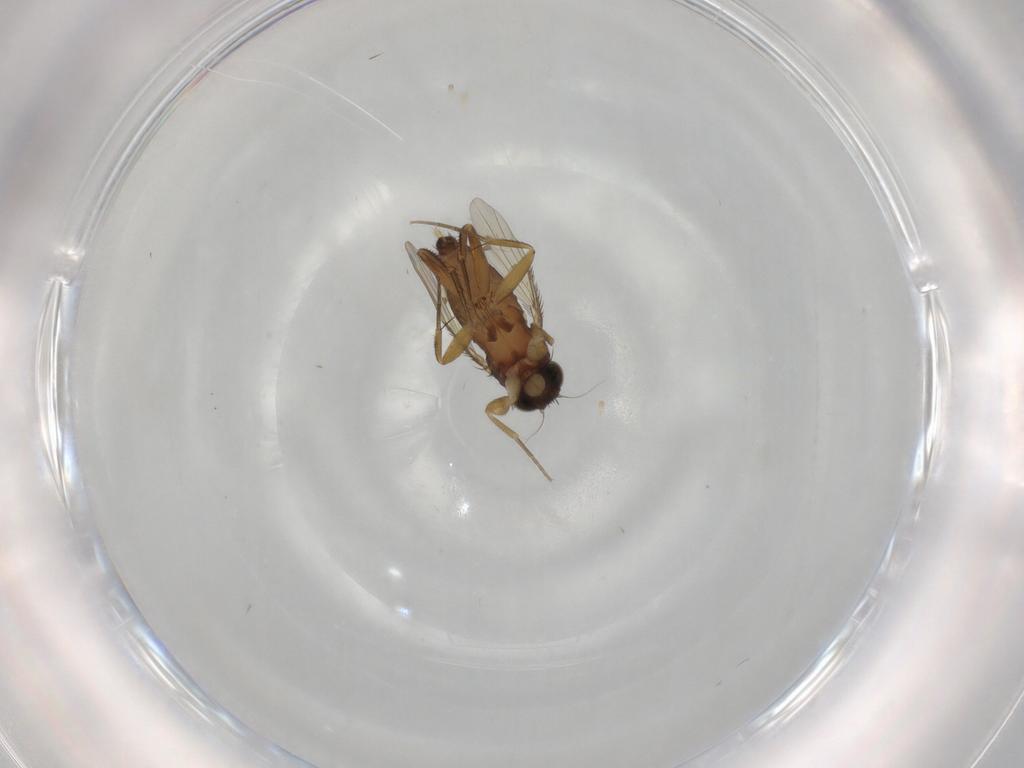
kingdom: Animalia
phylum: Arthropoda
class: Insecta
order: Diptera
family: Phoridae
